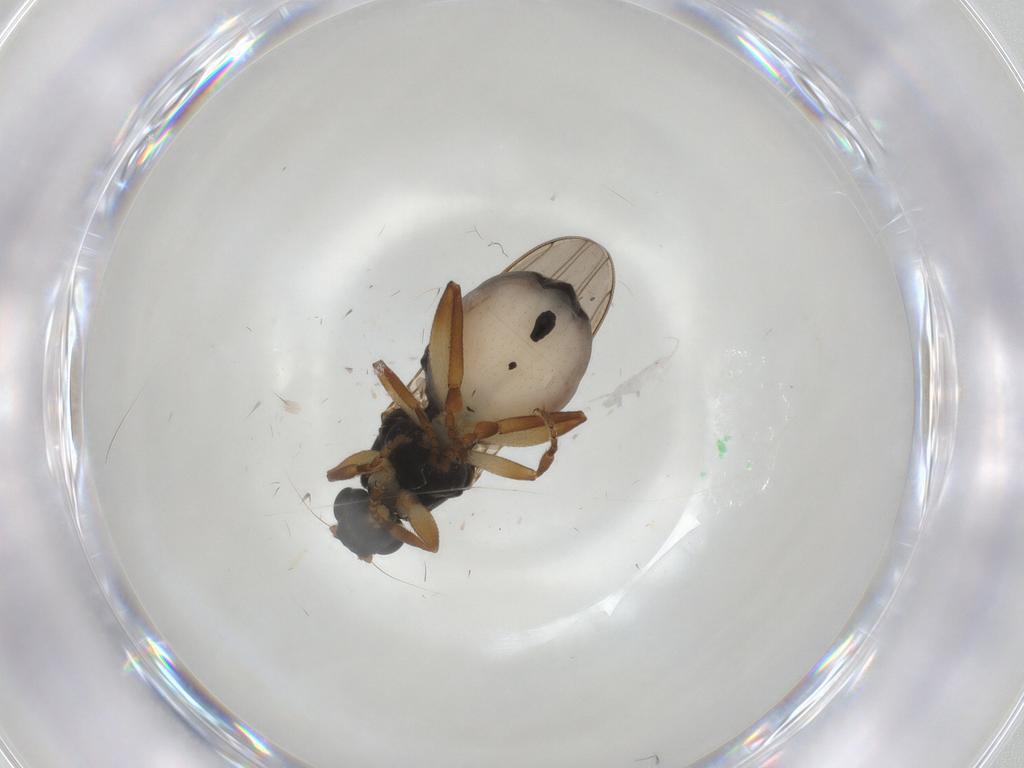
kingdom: Animalia
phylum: Arthropoda
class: Insecta
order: Diptera
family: Sphaeroceridae
